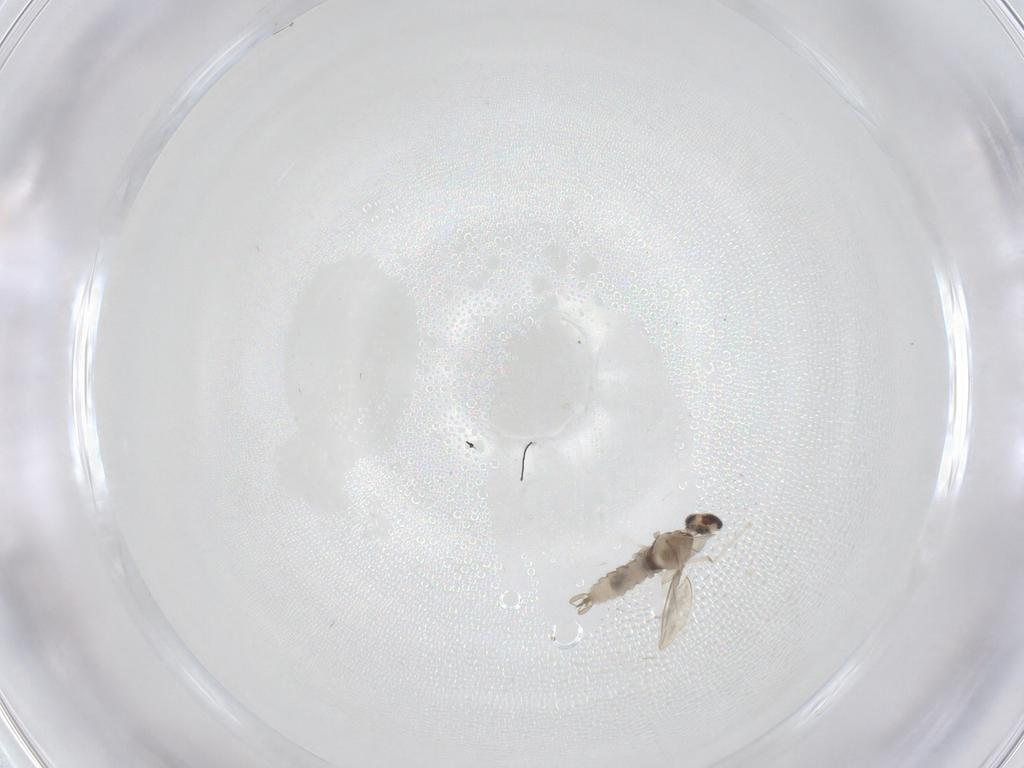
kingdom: Animalia
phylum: Arthropoda
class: Insecta
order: Diptera
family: Cecidomyiidae
